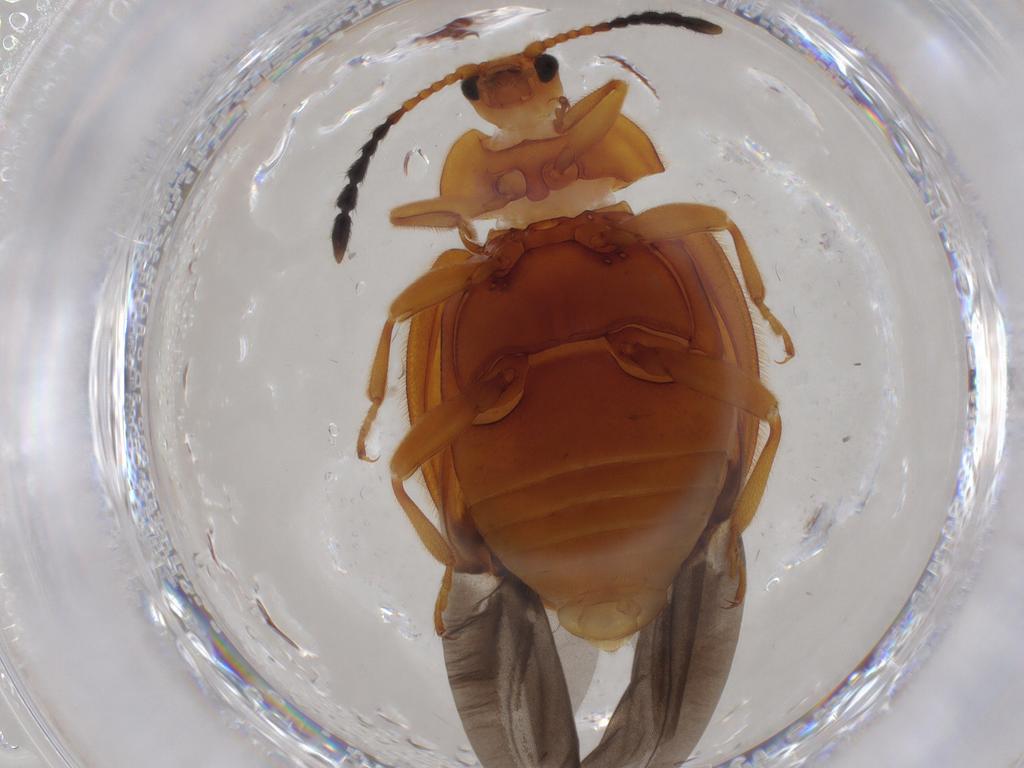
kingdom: Animalia
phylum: Arthropoda
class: Insecta
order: Coleoptera
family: Endomychidae
